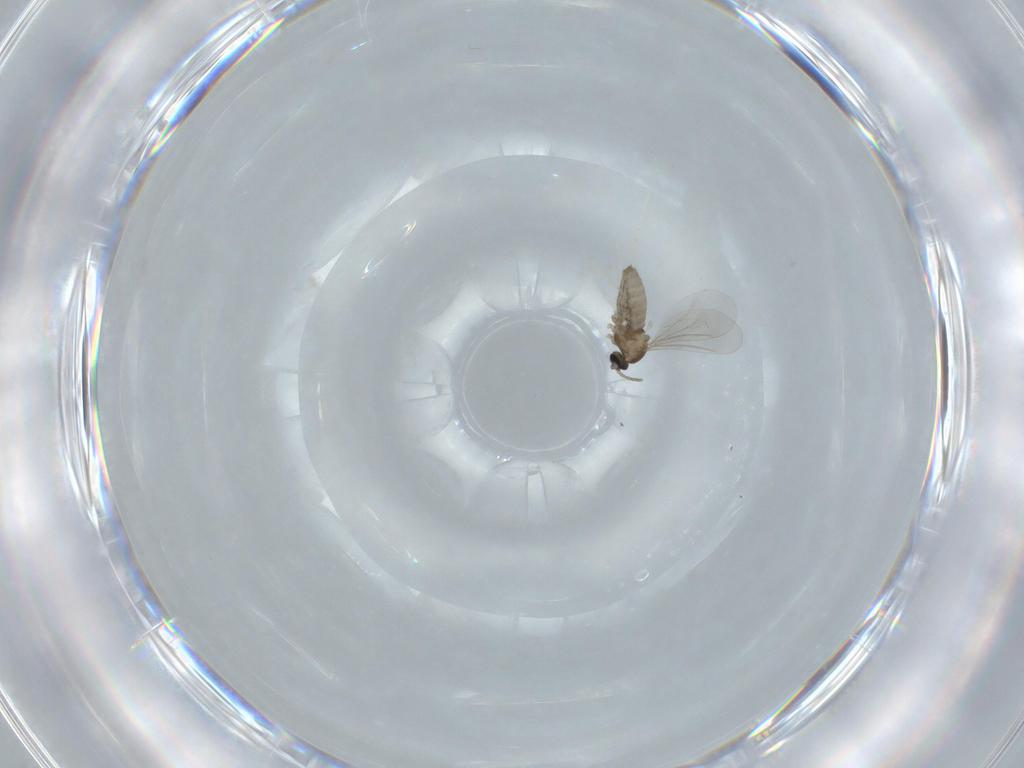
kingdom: Animalia
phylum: Arthropoda
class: Insecta
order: Diptera
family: Cecidomyiidae
